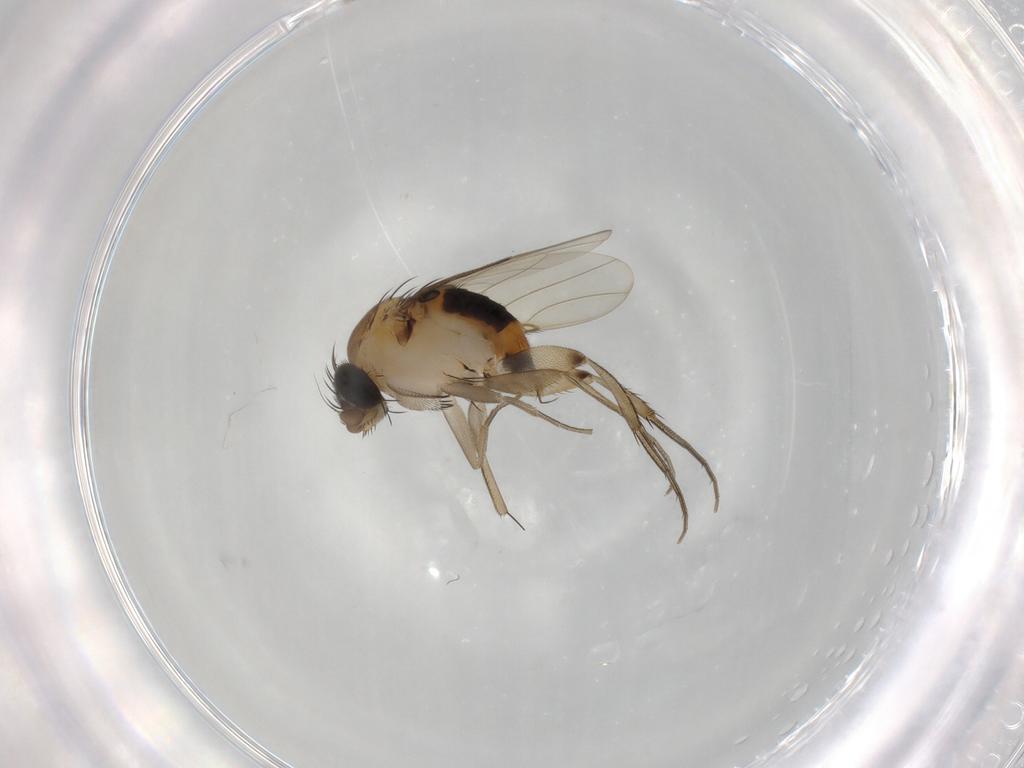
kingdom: Animalia
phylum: Arthropoda
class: Insecta
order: Diptera
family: Phoridae
